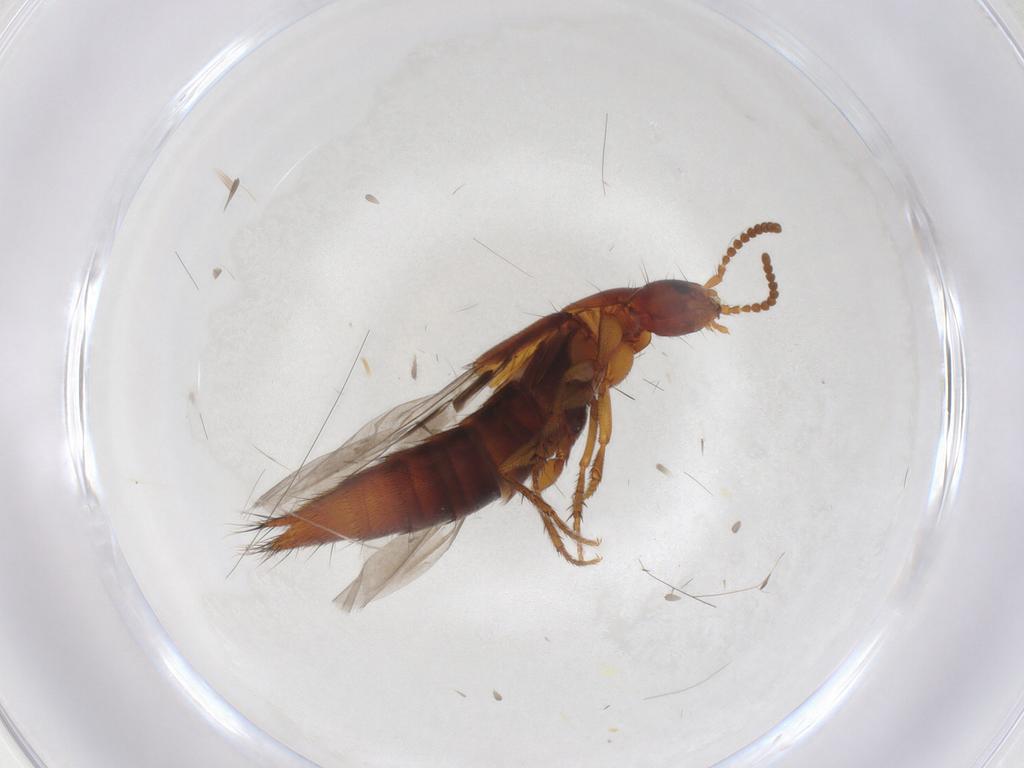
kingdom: Animalia
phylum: Arthropoda
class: Insecta
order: Coleoptera
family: Staphylinidae
